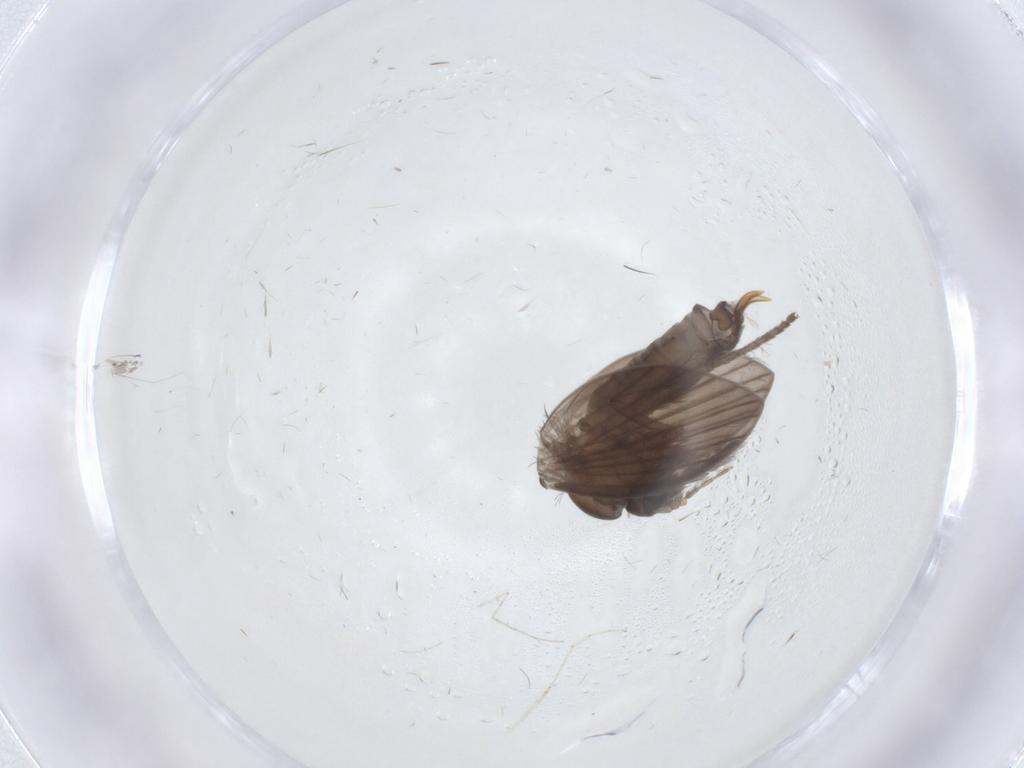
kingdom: Animalia
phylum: Arthropoda
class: Insecta
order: Diptera
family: Psychodidae
